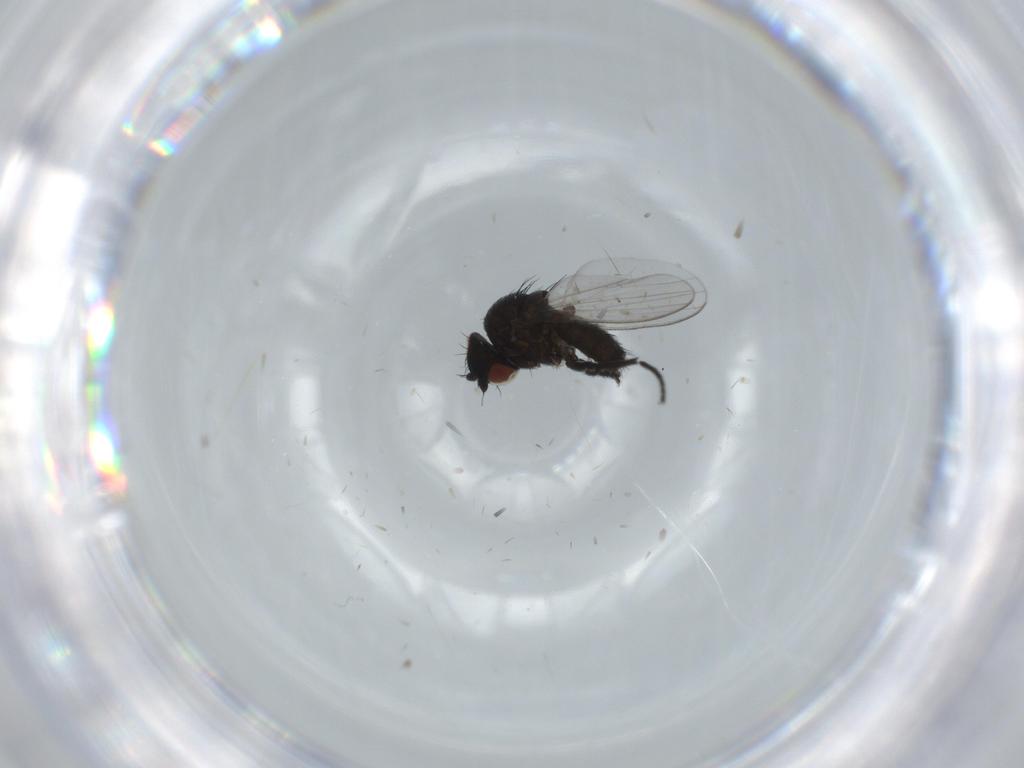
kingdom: Animalia
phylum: Arthropoda
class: Insecta
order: Diptera
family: Milichiidae
